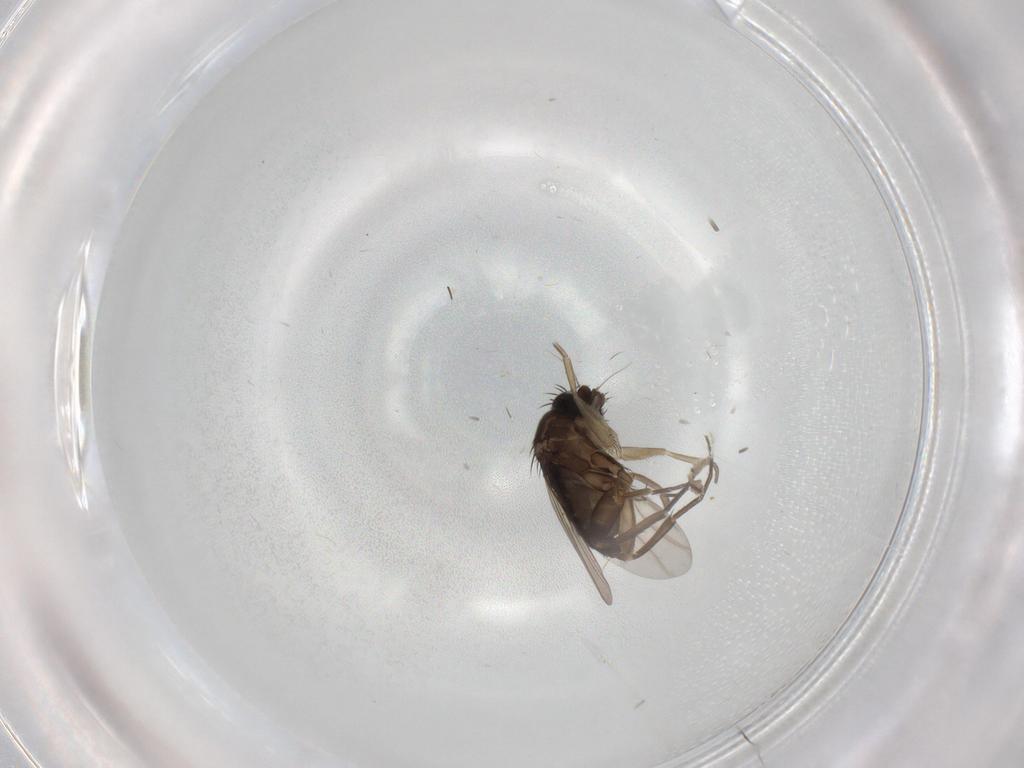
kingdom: Animalia
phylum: Arthropoda
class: Insecta
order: Diptera
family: Phoridae
